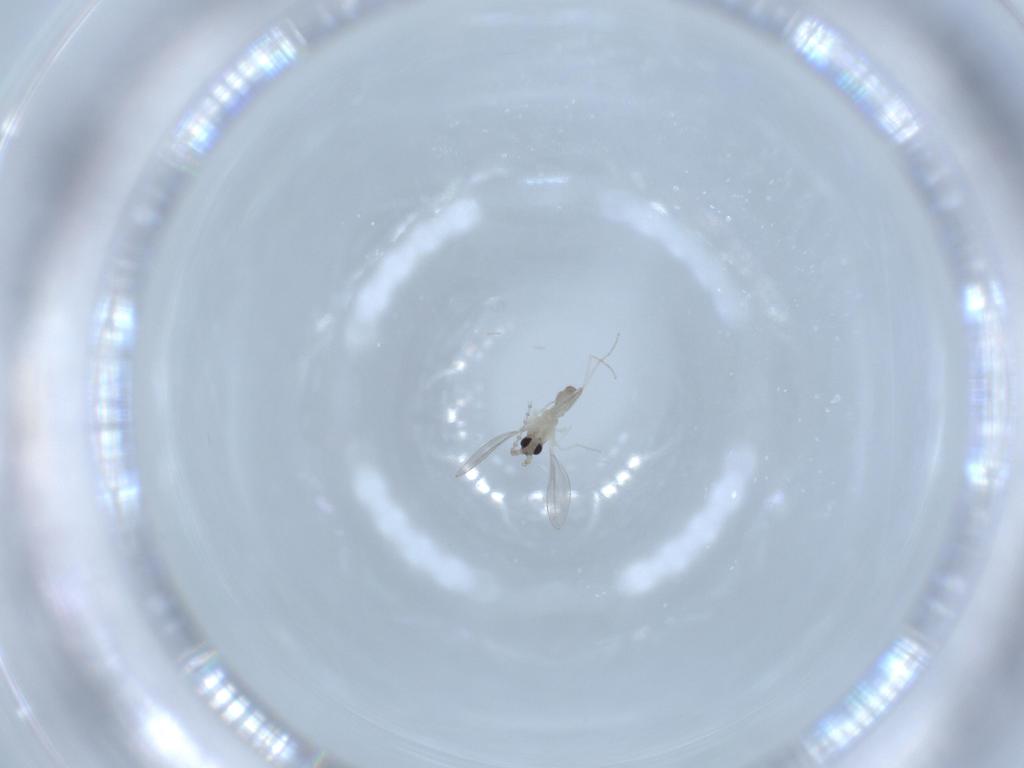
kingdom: Animalia
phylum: Arthropoda
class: Insecta
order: Diptera
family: Cecidomyiidae
